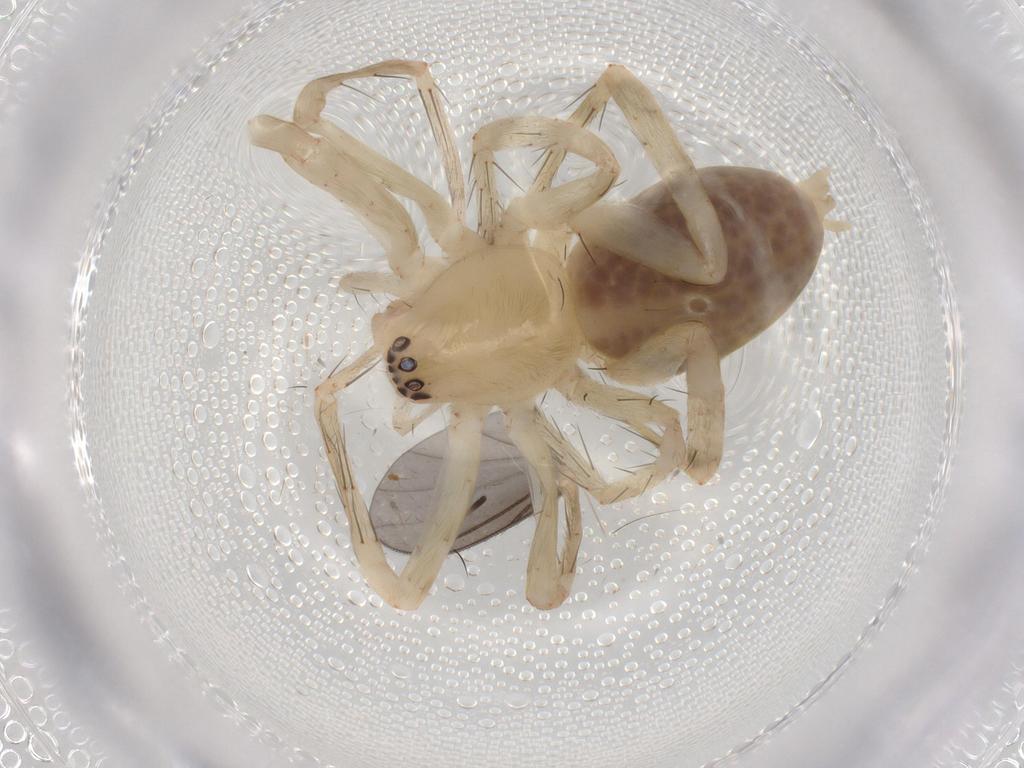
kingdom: Animalia
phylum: Arthropoda
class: Arachnida
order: Araneae
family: Anyphaenidae
